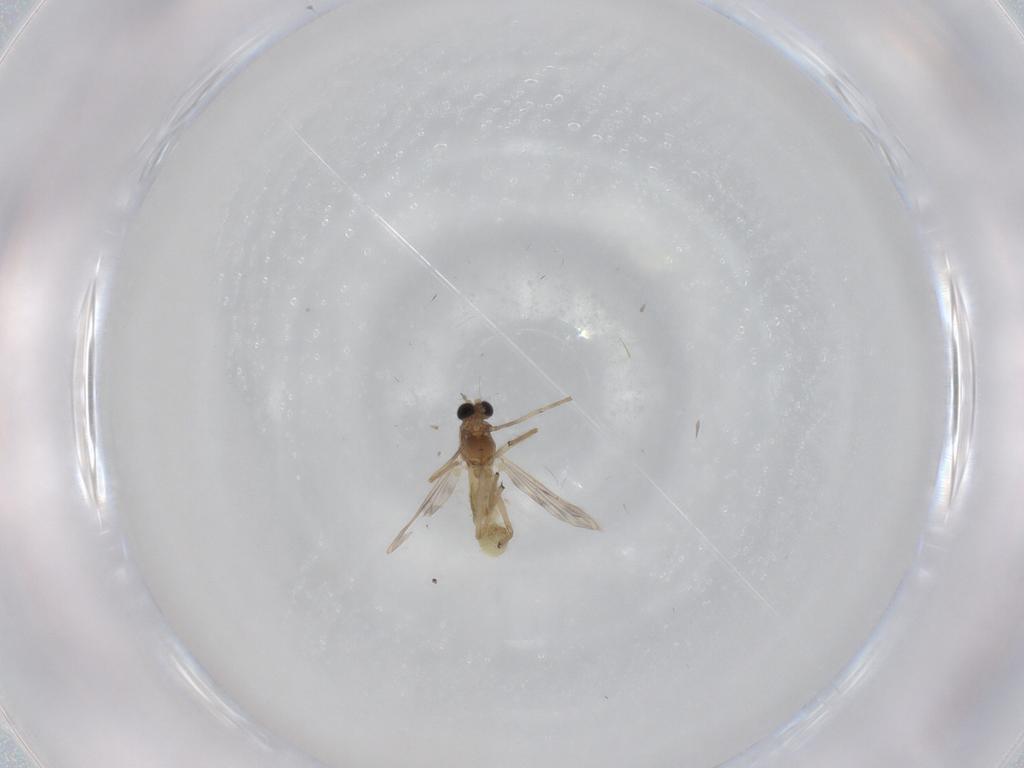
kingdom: Animalia
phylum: Arthropoda
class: Insecta
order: Diptera
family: Chironomidae
